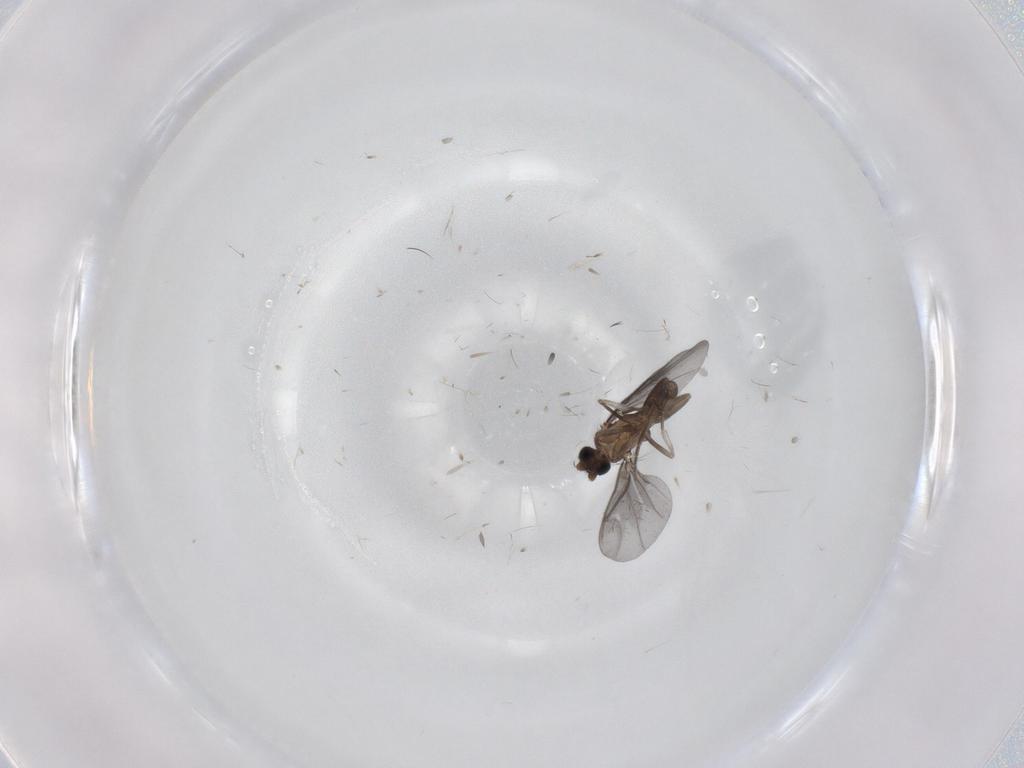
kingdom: Animalia
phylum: Arthropoda
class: Insecta
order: Diptera
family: Phoridae
